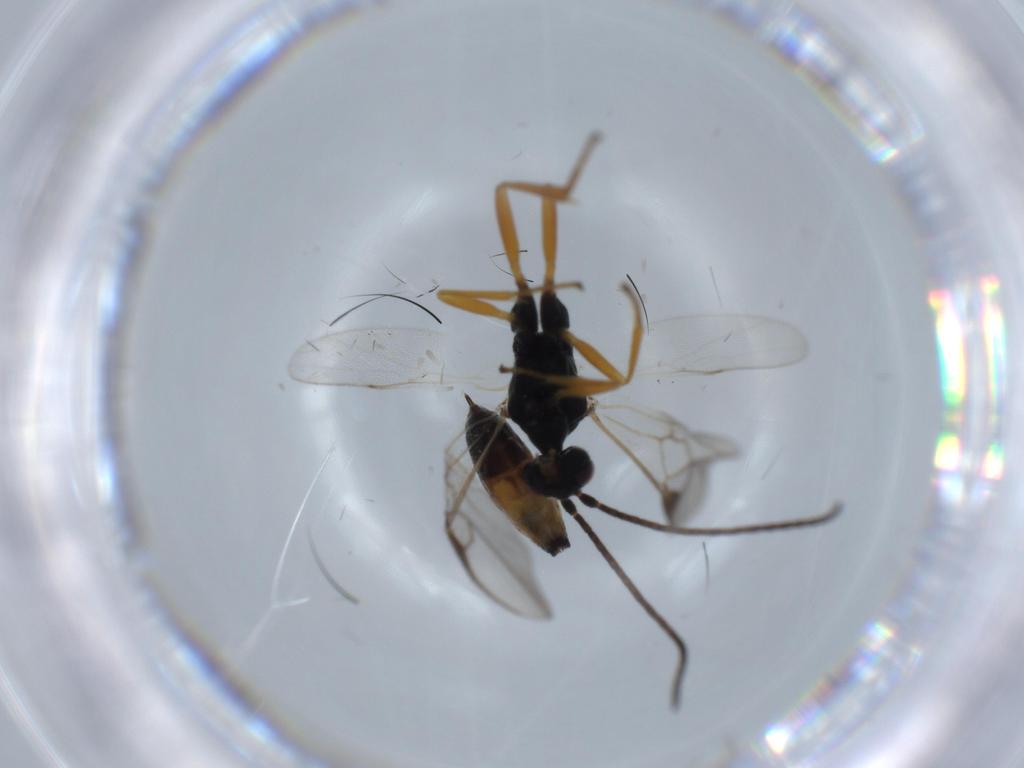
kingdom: Animalia
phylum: Arthropoda
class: Insecta
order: Hymenoptera
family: Braconidae
